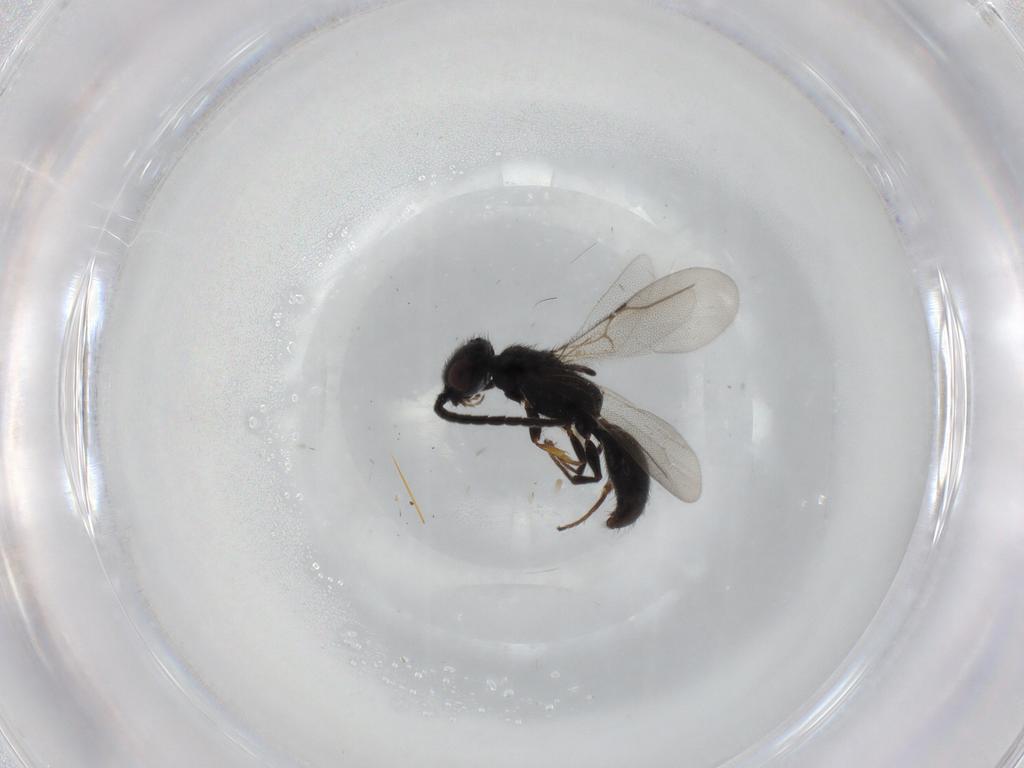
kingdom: Animalia
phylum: Arthropoda
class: Insecta
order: Hymenoptera
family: Bethylidae
